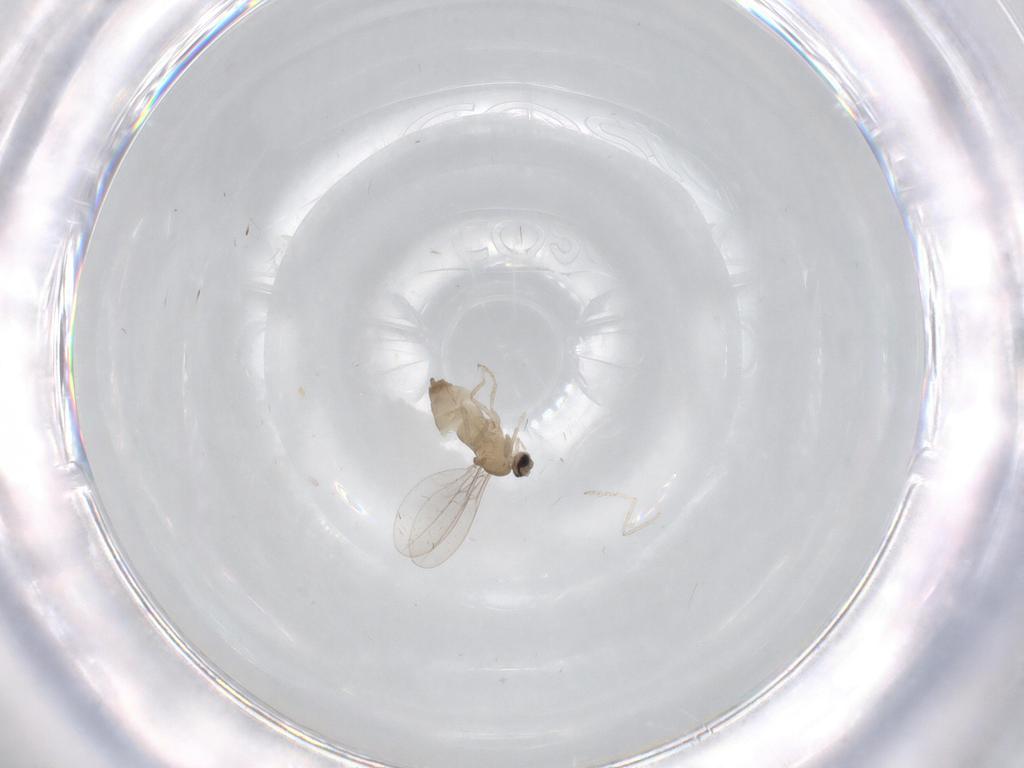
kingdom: Animalia
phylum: Arthropoda
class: Insecta
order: Diptera
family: Cecidomyiidae
